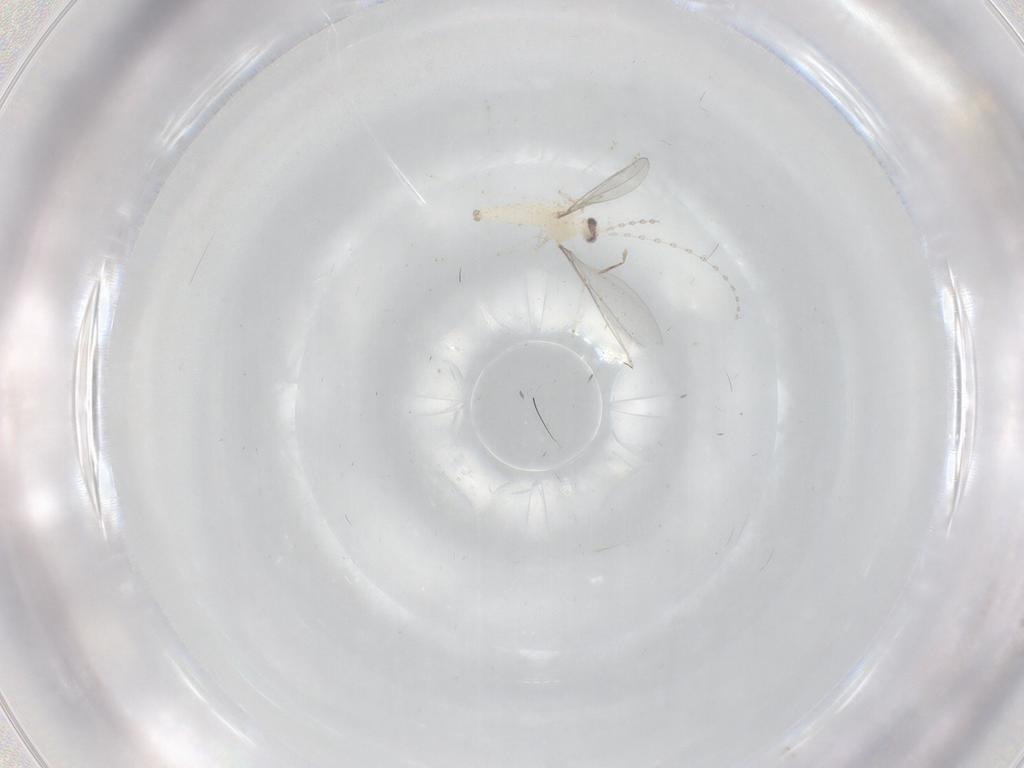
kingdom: Animalia
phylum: Arthropoda
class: Insecta
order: Diptera
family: Cecidomyiidae
